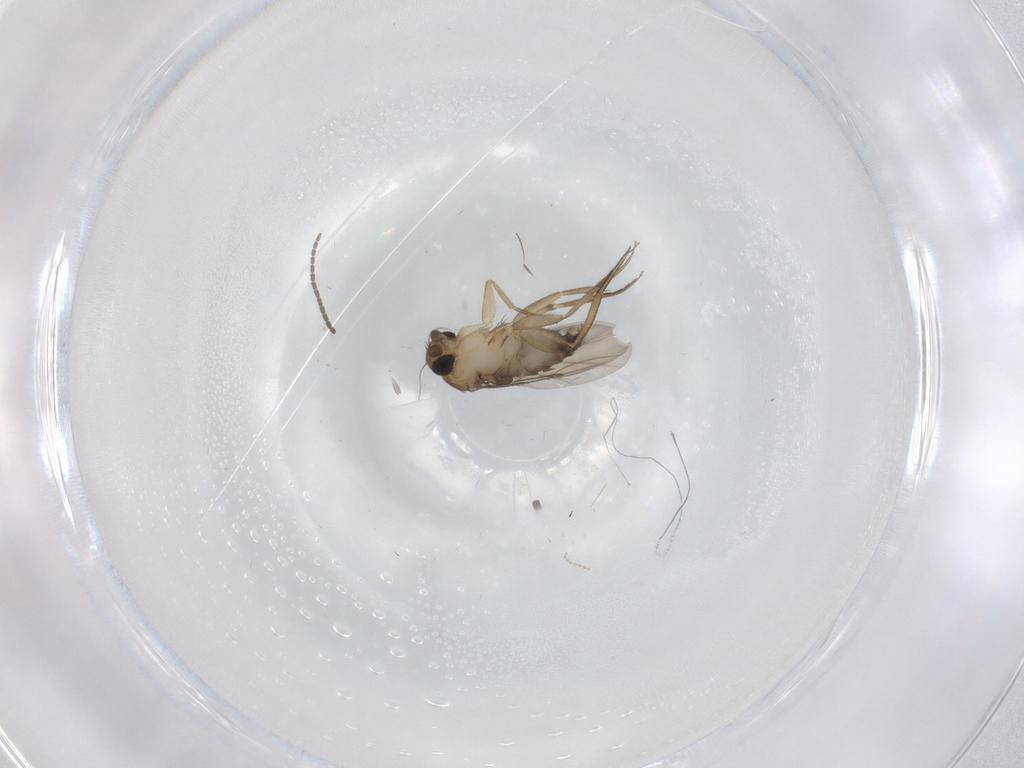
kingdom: Animalia
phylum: Arthropoda
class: Insecta
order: Diptera
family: Phoridae
